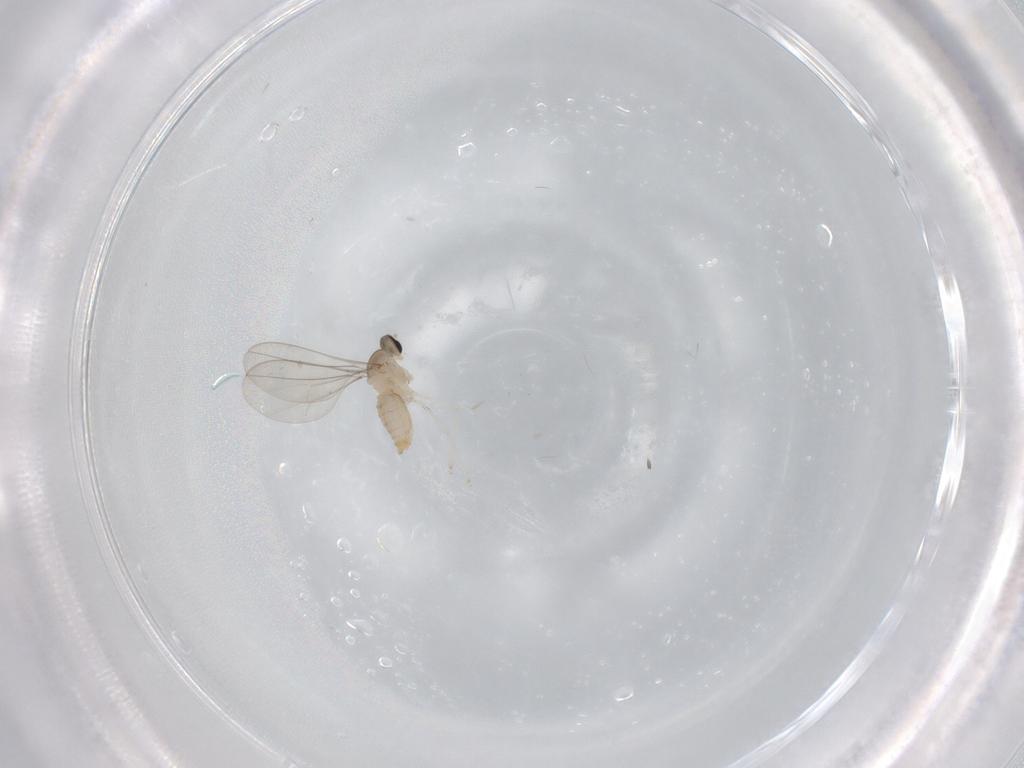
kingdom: Animalia
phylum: Arthropoda
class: Insecta
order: Diptera
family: Cecidomyiidae
